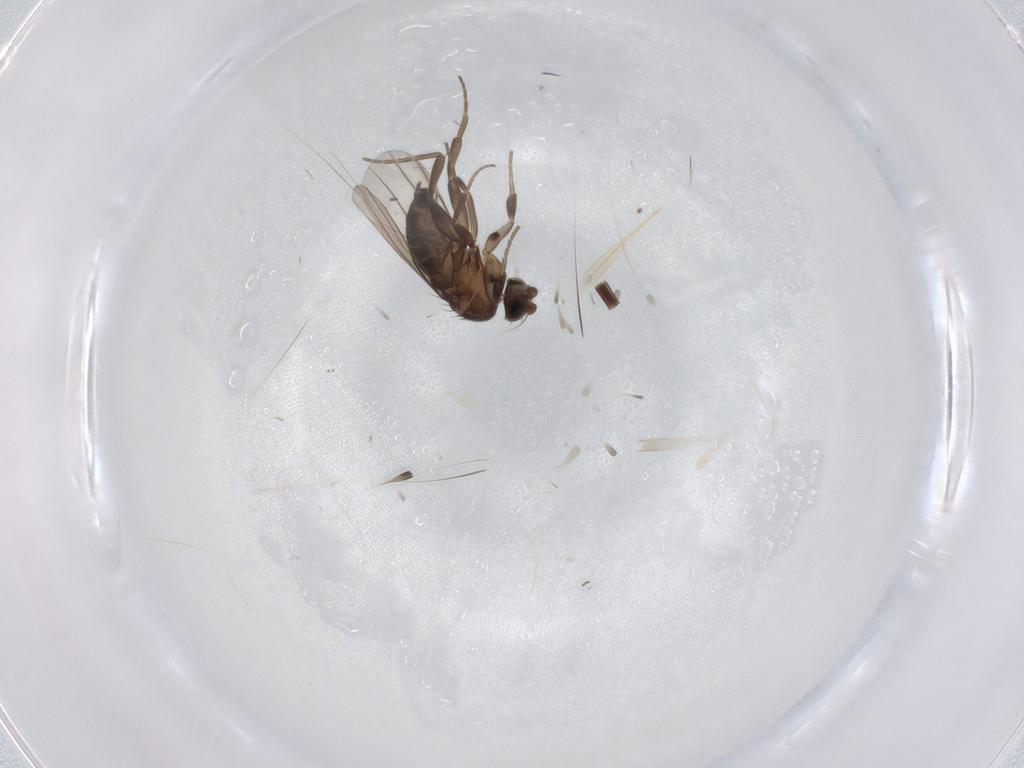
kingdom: Animalia
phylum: Arthropoda
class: Insecta
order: Diptera
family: Phoridae
